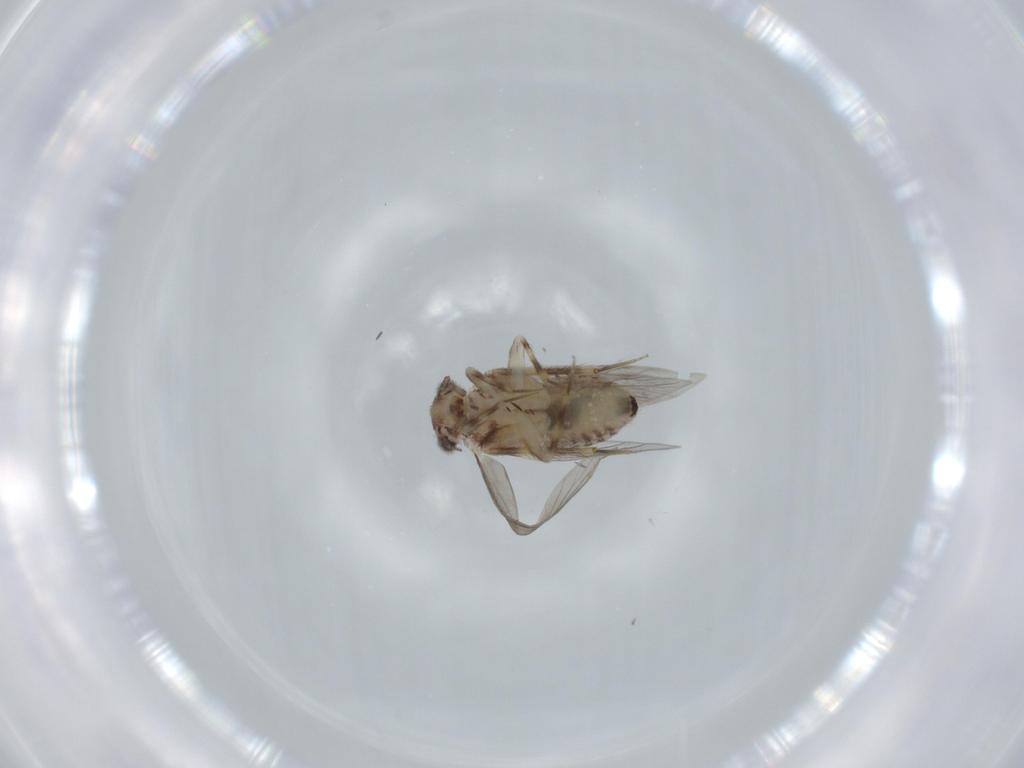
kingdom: Animalia
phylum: Arthropoda
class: Insecta
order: Psocodea
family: Lepidopsocidae
